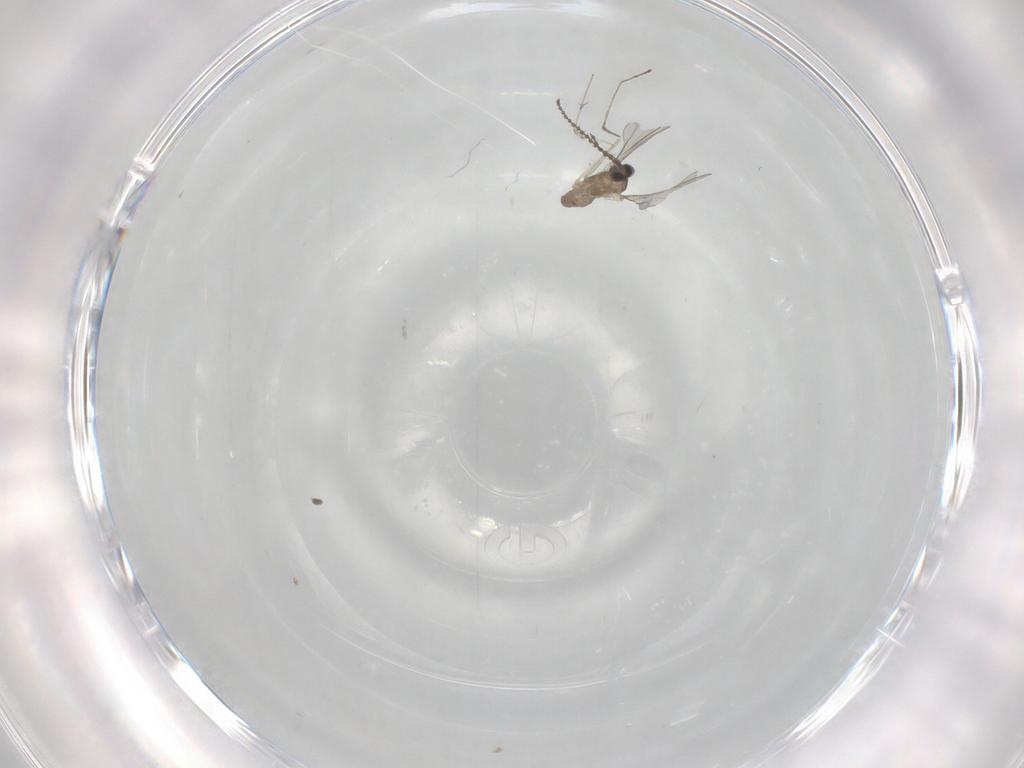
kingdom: Animalia
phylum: Arthropoda
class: Insecta
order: Diptera
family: Cecidomyiidae
